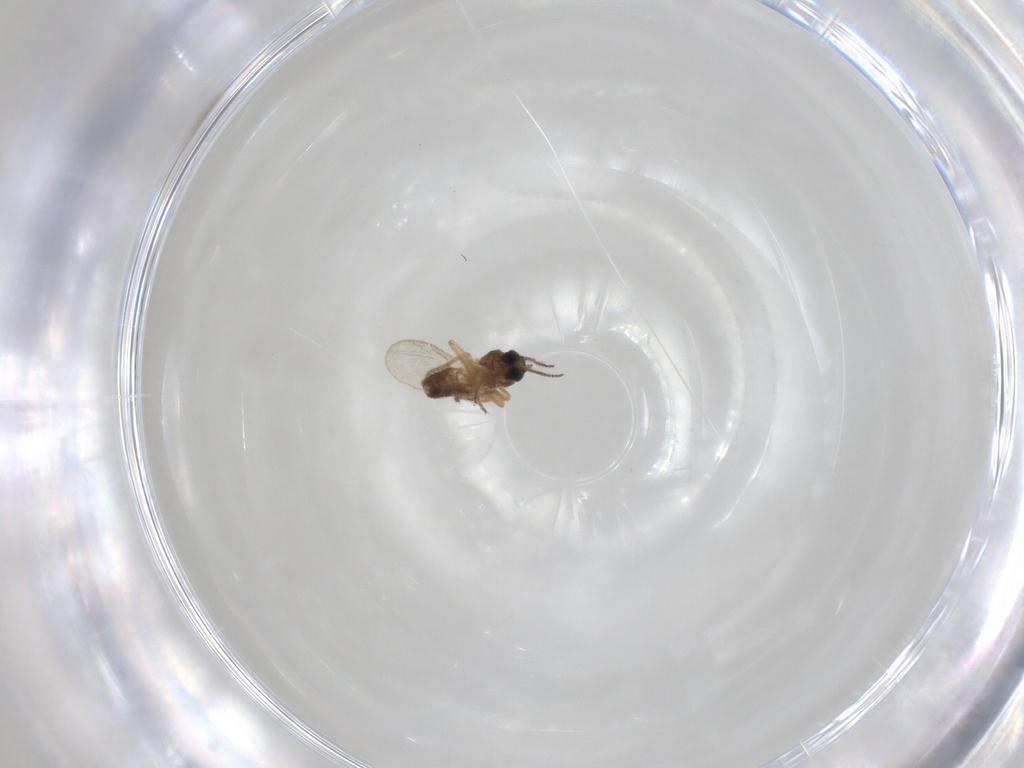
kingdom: Animalia
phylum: Arthropoda
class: Insecta
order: Diptera
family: Ceratopogonidae
